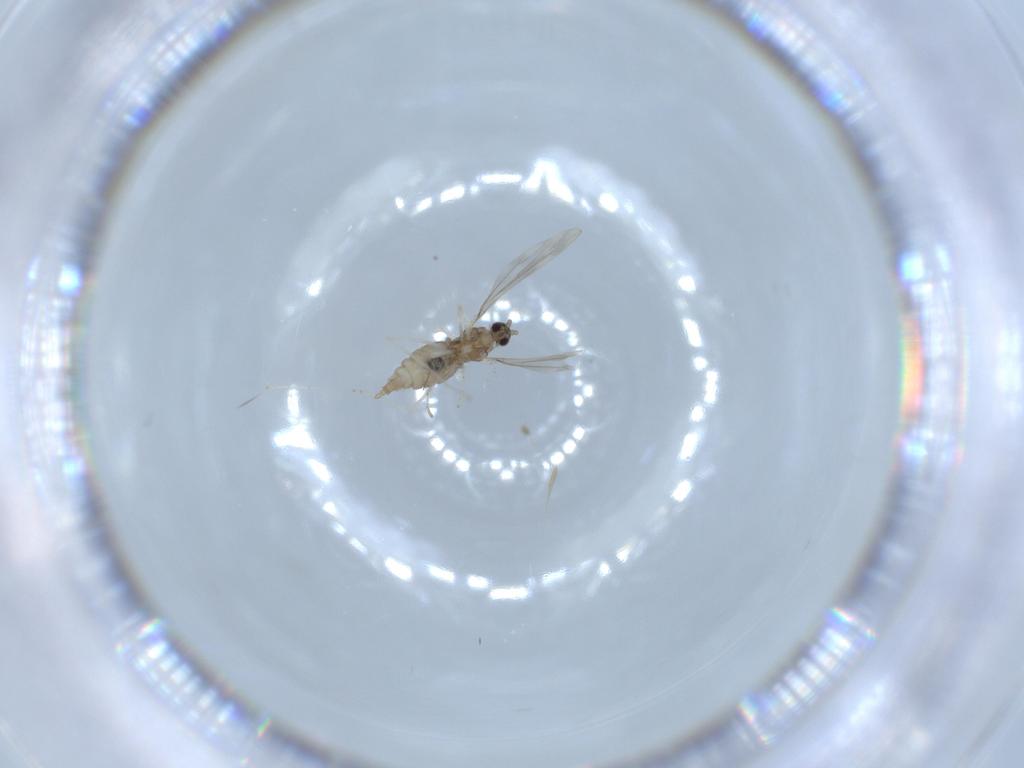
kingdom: Animalia
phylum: Arthropoda
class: Insecta
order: Diptera
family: Cecidomyiidae
